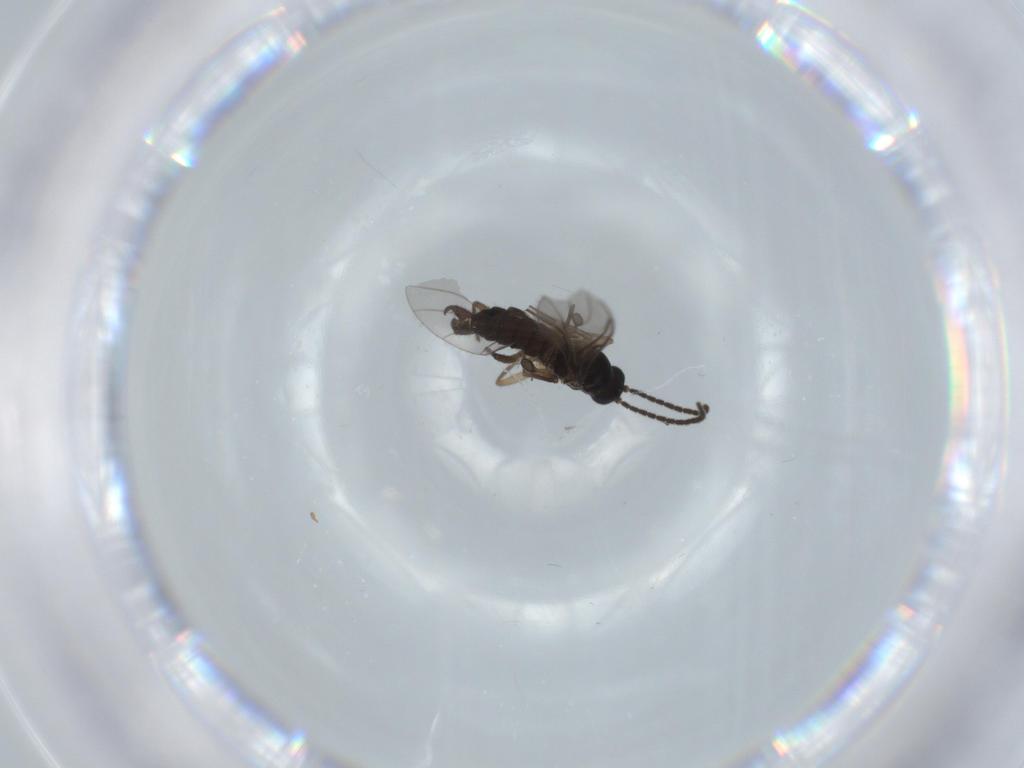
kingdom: Animalia
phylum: Arthropoda
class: Insecta
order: Diptera
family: Sciaridae
